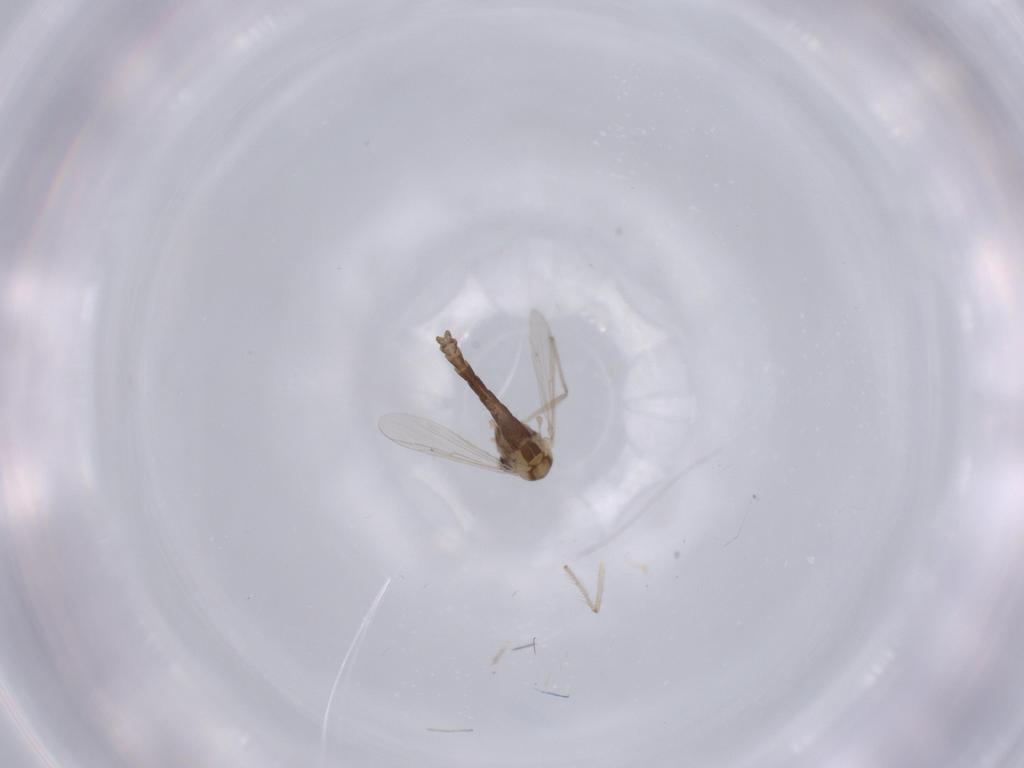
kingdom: Animalia
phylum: Arthropoda
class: Insecta
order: Diptera
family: Chironomidae
